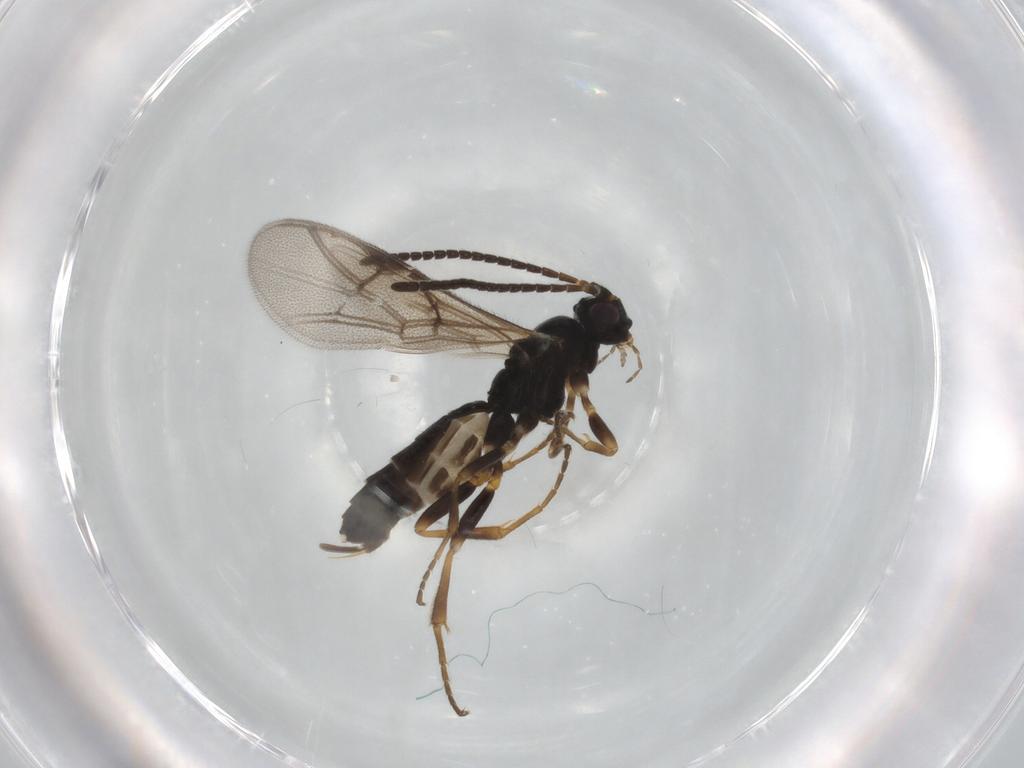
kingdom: Animalia
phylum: Arthropoda
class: Insecta
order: Hymenoptera
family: Ichneumonidae
